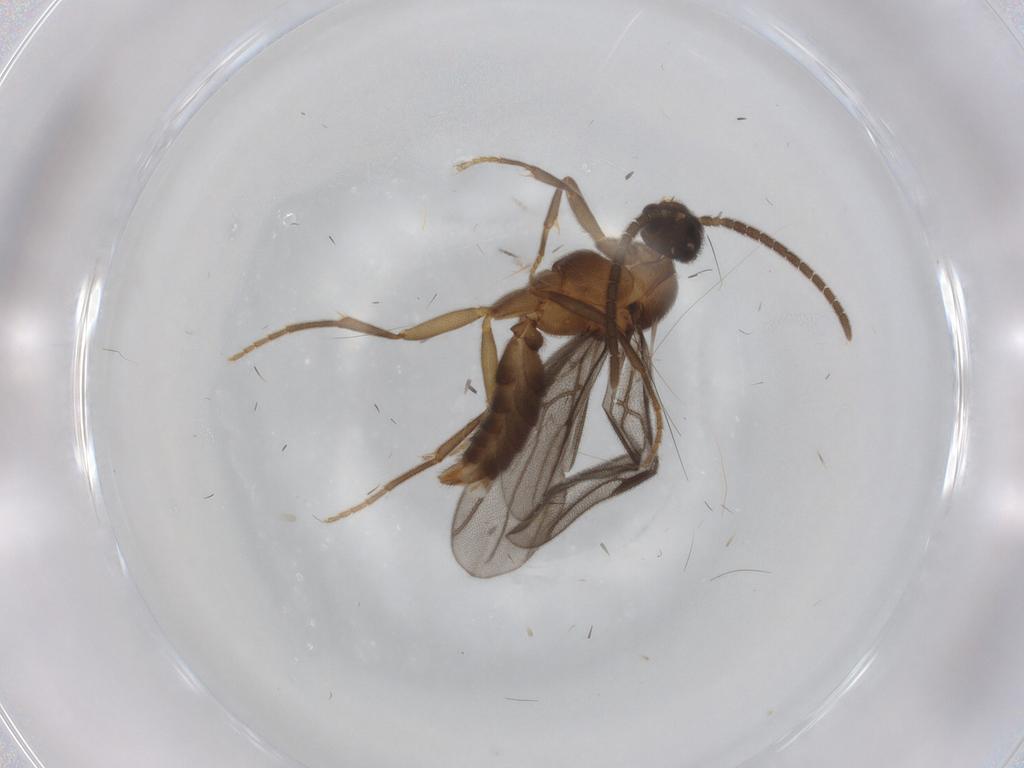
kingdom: Animalia
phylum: Arthropoda
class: Insecta
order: Hymenoptera
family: Formicidae
